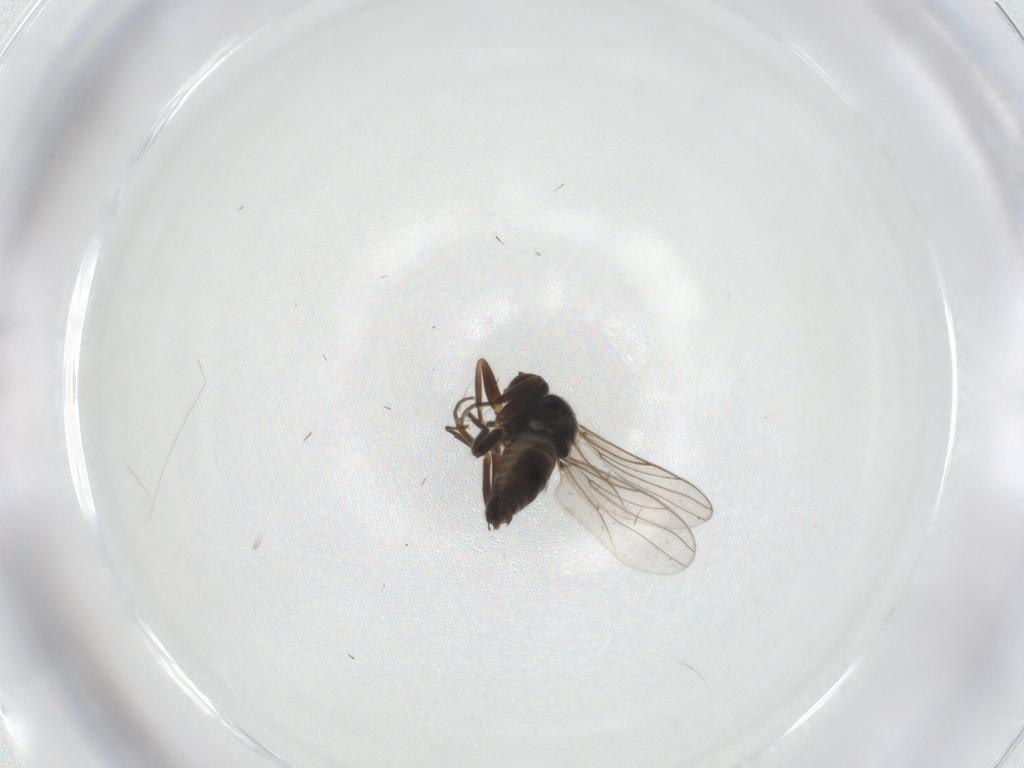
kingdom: Animalia
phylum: Arthropoda
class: Insecta
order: Diptera
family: Hybotidae
